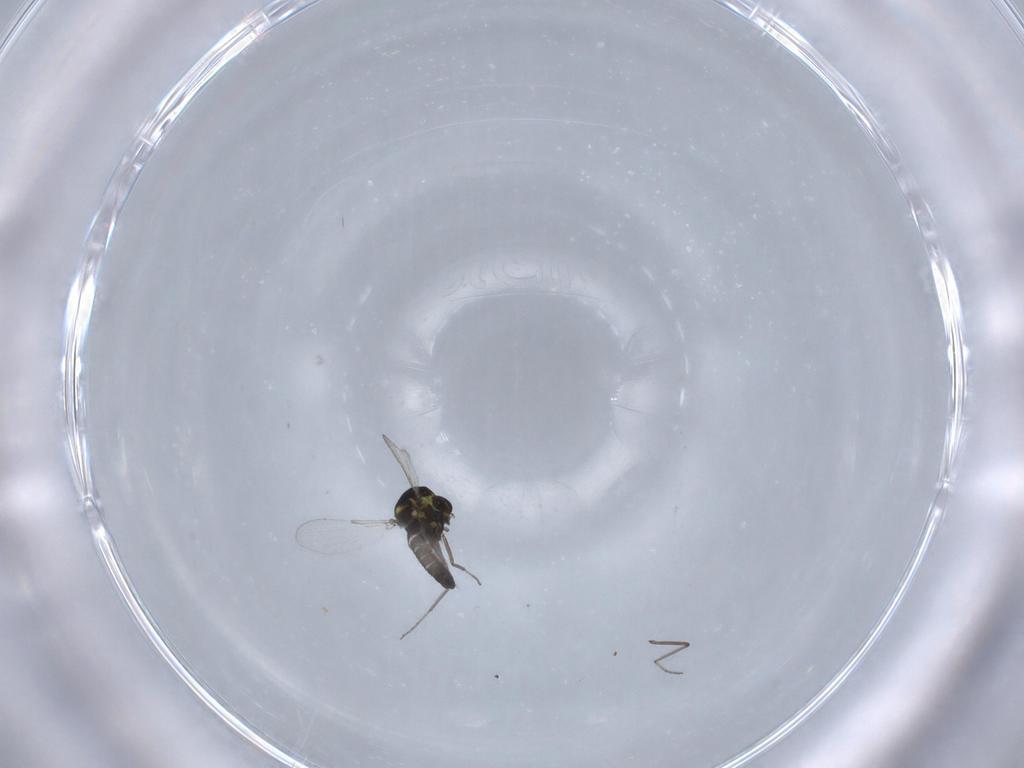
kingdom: Animalia
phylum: Arthropoda
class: Insecta
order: Diptera
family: Ceratopogonidae
